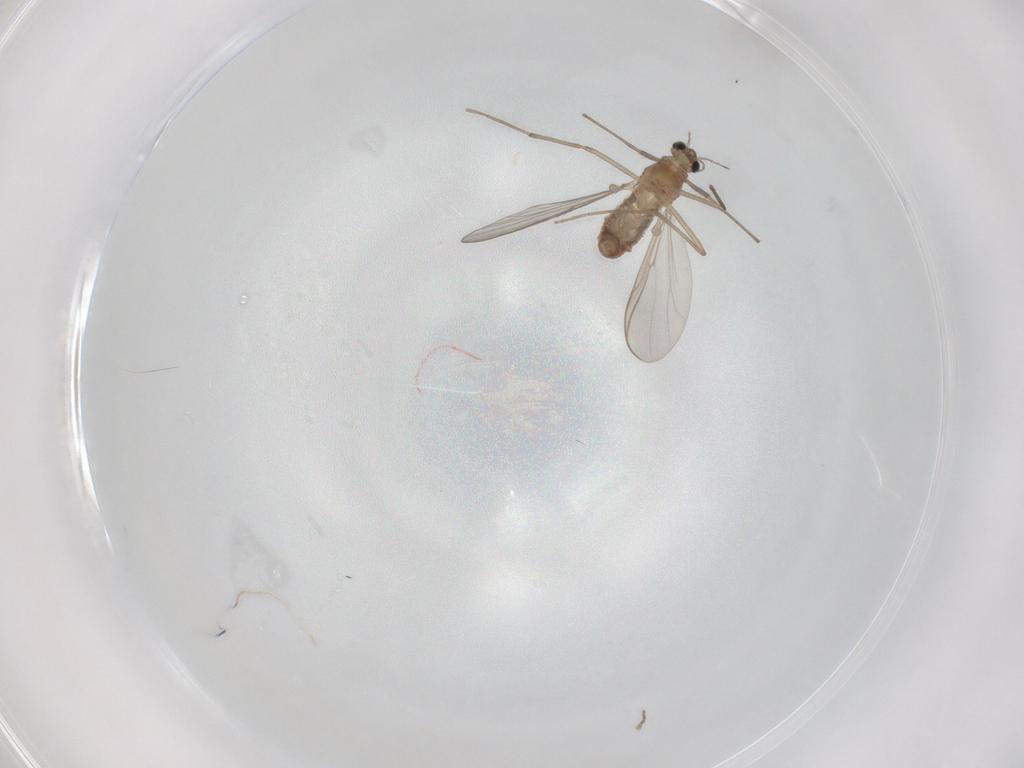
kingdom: Animalia
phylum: Arthropoda
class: Insecta
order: Diptera
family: Chironomidae
